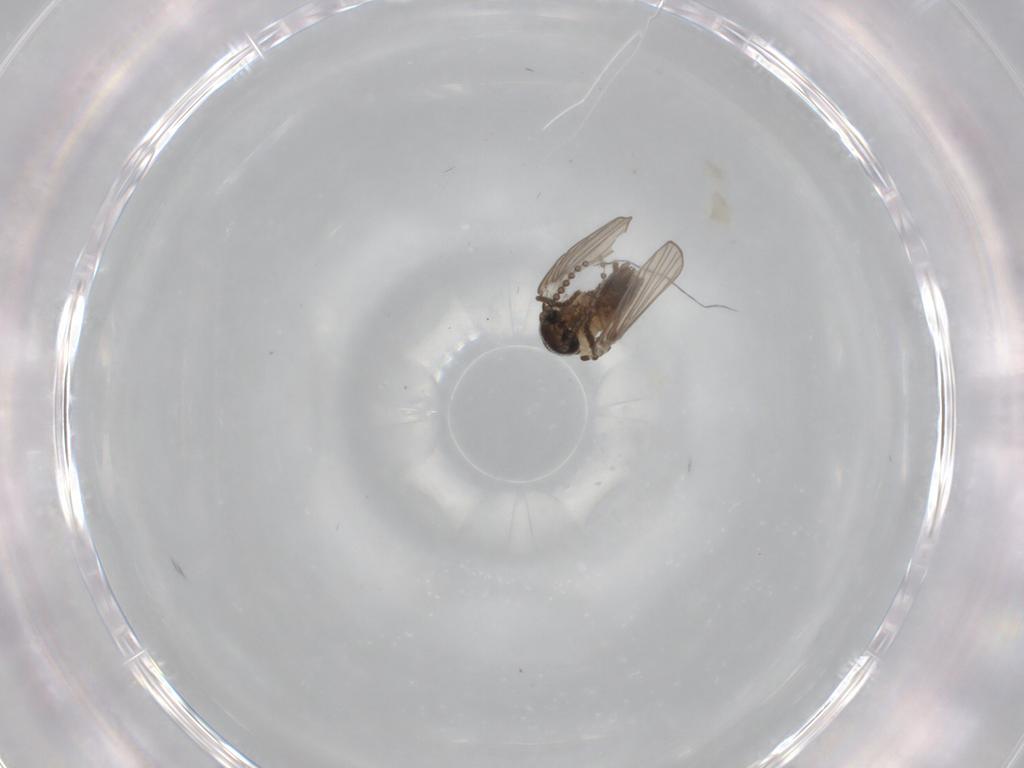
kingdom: Animalia
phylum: Arthropoda
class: Insecta
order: Diptera
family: Psychodidae
